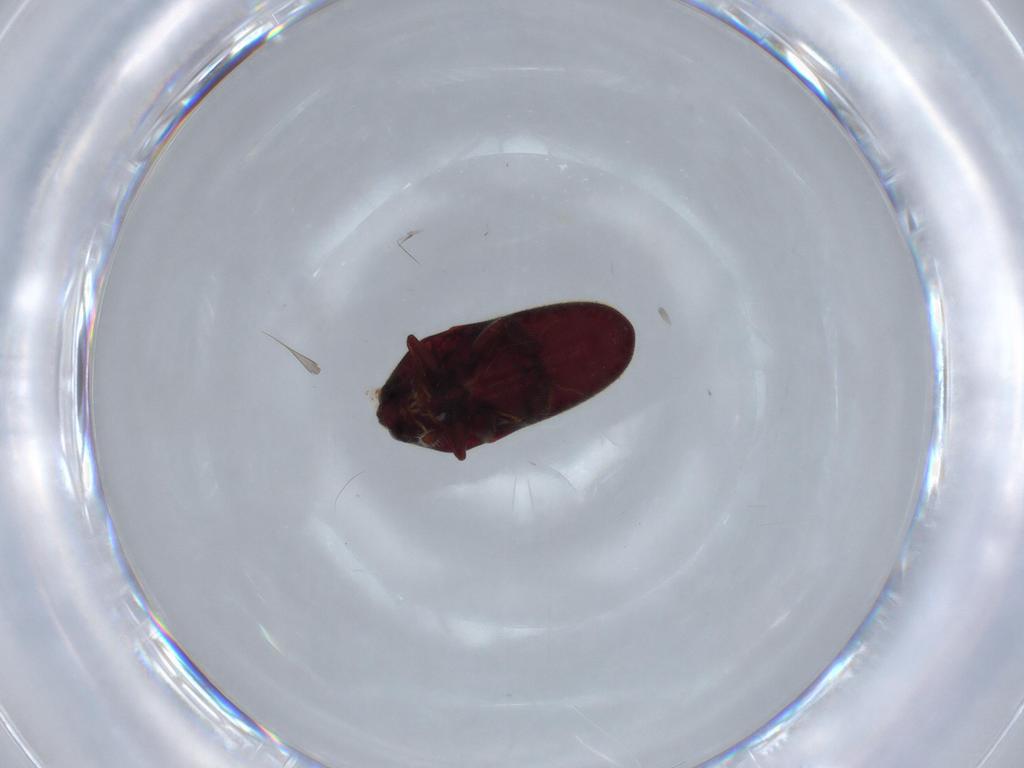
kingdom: Animalia
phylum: Arthropoda
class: Insecta
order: Coleoptera
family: Throscidae
